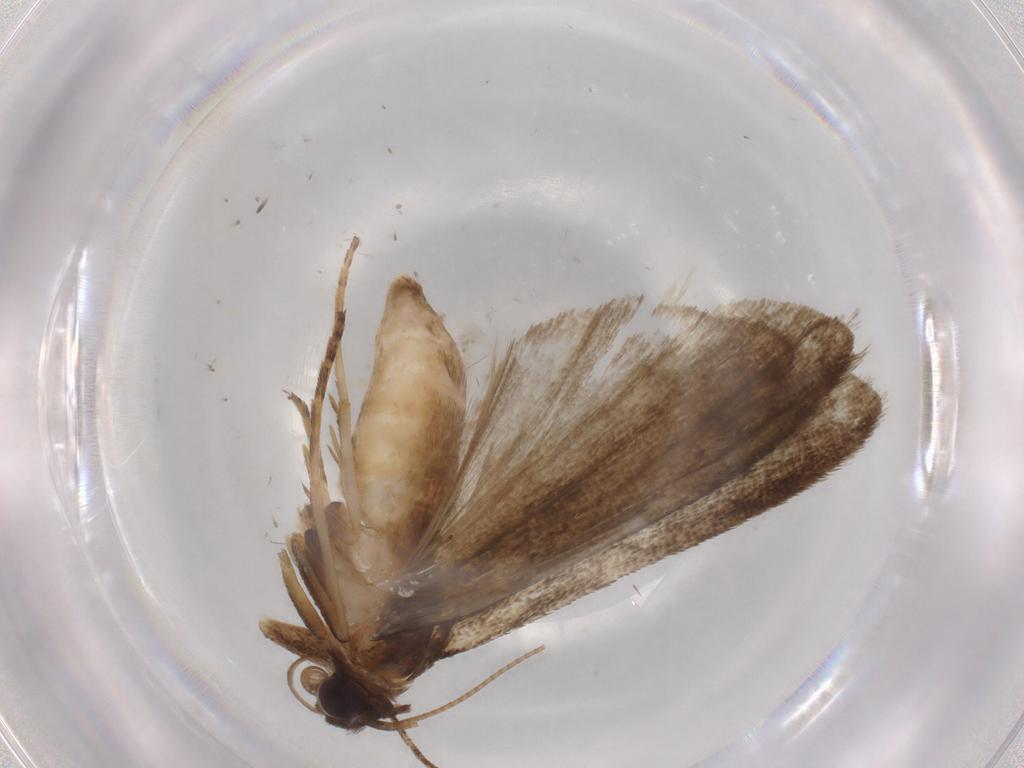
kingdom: Animalia
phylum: Arthropoda
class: Insecta
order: Lepidoptera
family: Noctuidae
